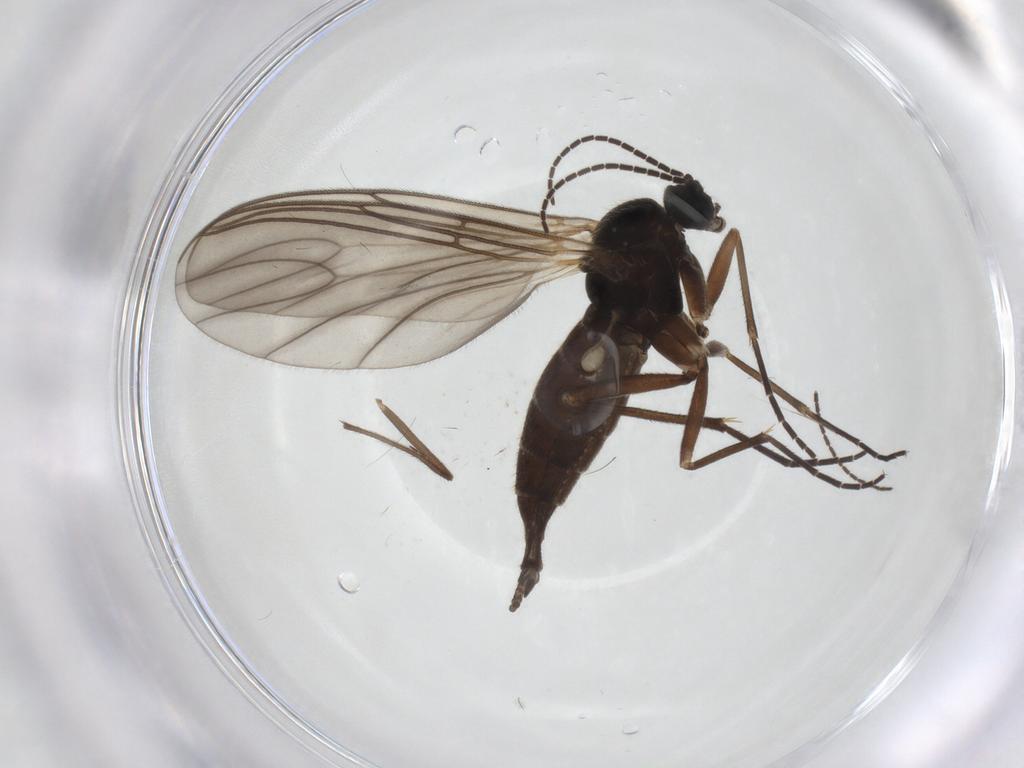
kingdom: Animalia
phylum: Arthropoda
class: Insecta
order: Diptera
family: Sciaridae
